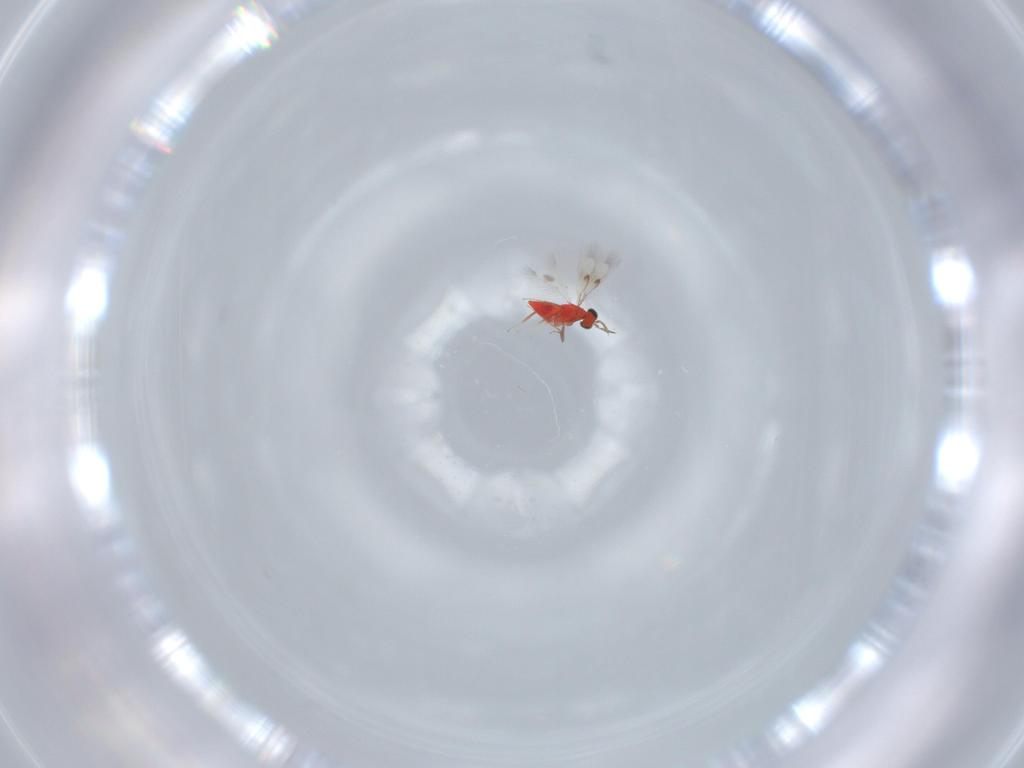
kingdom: Animalia
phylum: Arthropoda
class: Insecta
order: Hymenoptera
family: Trichogrammatidae
